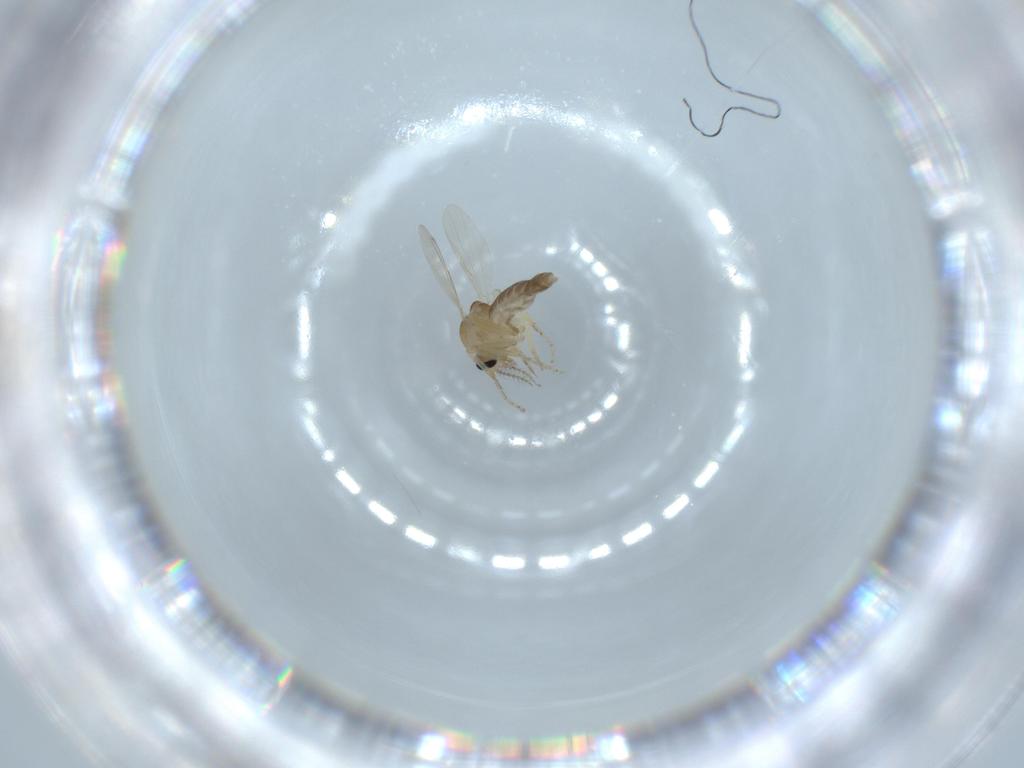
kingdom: Animalia
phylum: Arthropoda
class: Insecta
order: Diptera
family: Ceratopogonidae
